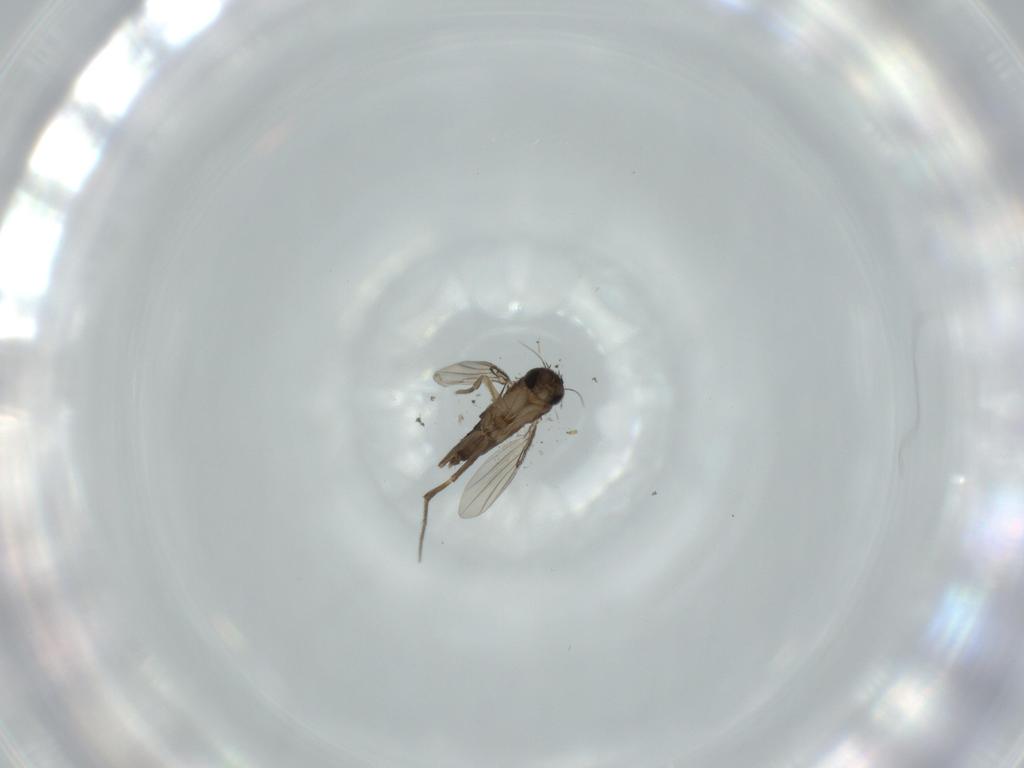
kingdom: Animalia
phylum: Arthropoda
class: Insecta
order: Diptera
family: Phoridae
